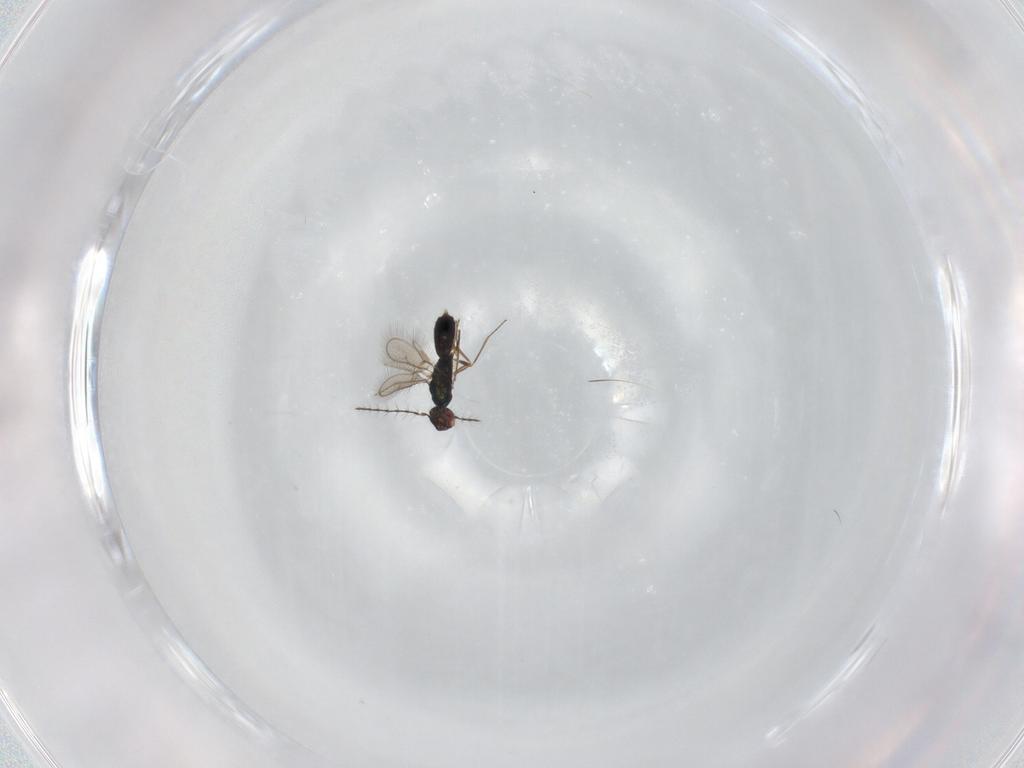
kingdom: Animalia
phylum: Arthropoda
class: Insecta
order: Hymenoptera
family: Pteromalidae
